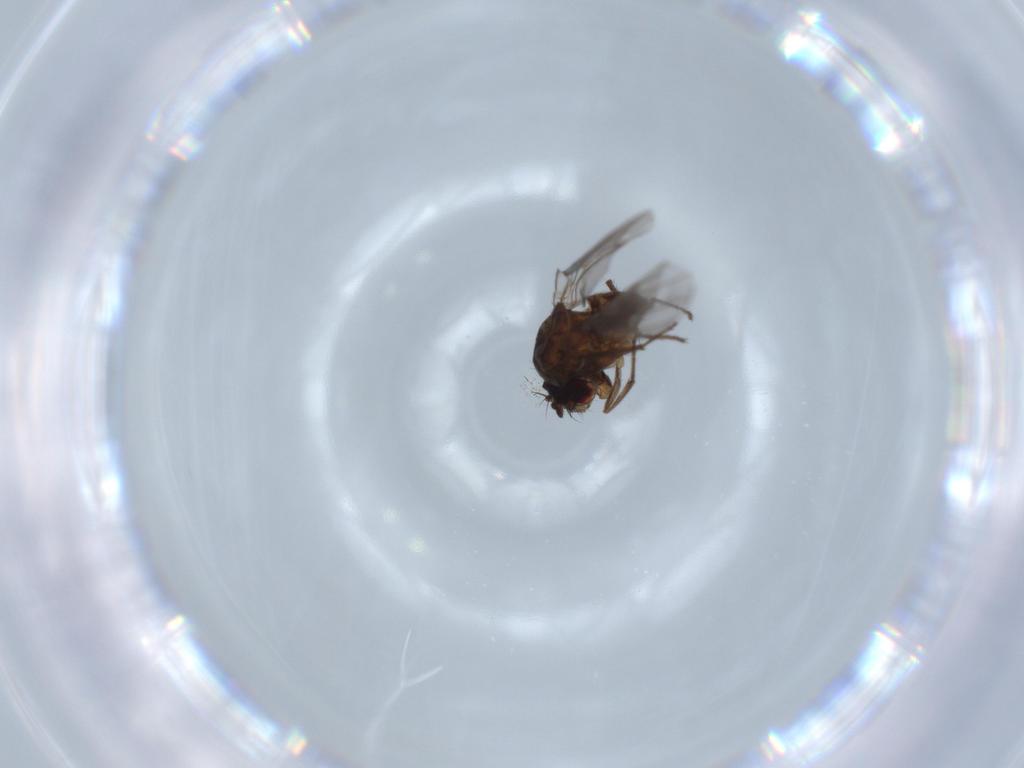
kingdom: Animalia
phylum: Arthropoda
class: Insecta
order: Diptera
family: Ephydridae
